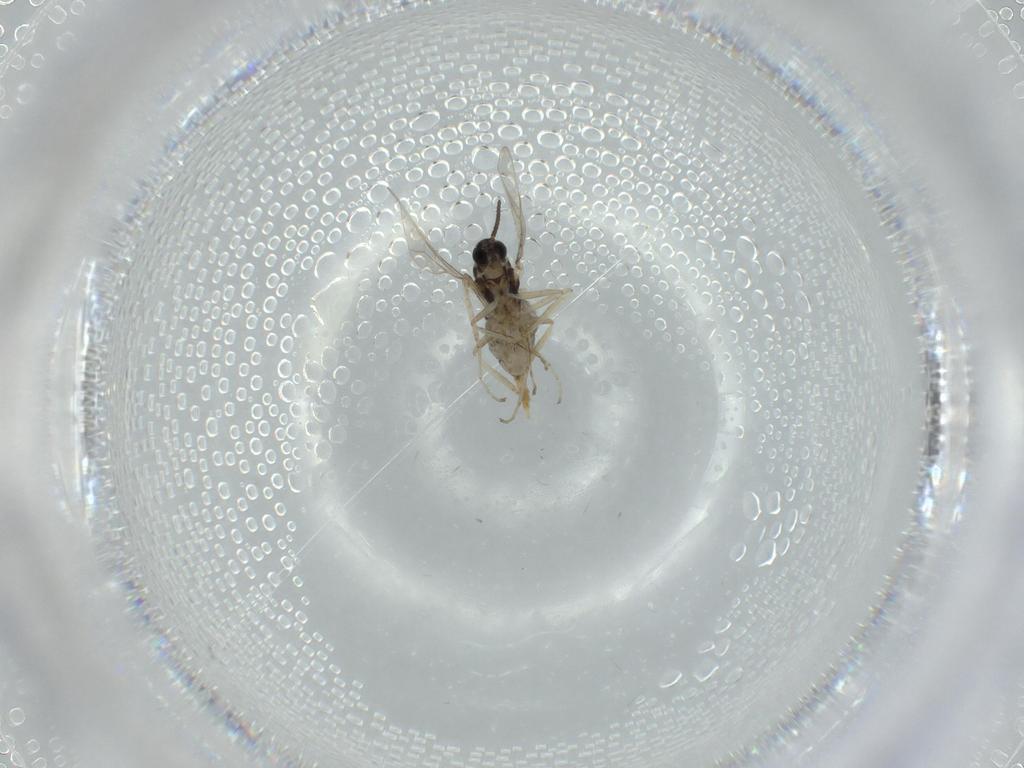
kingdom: Animalia
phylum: Arthropoda
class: Insecta
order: Diptera
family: Cecidomyiidae
